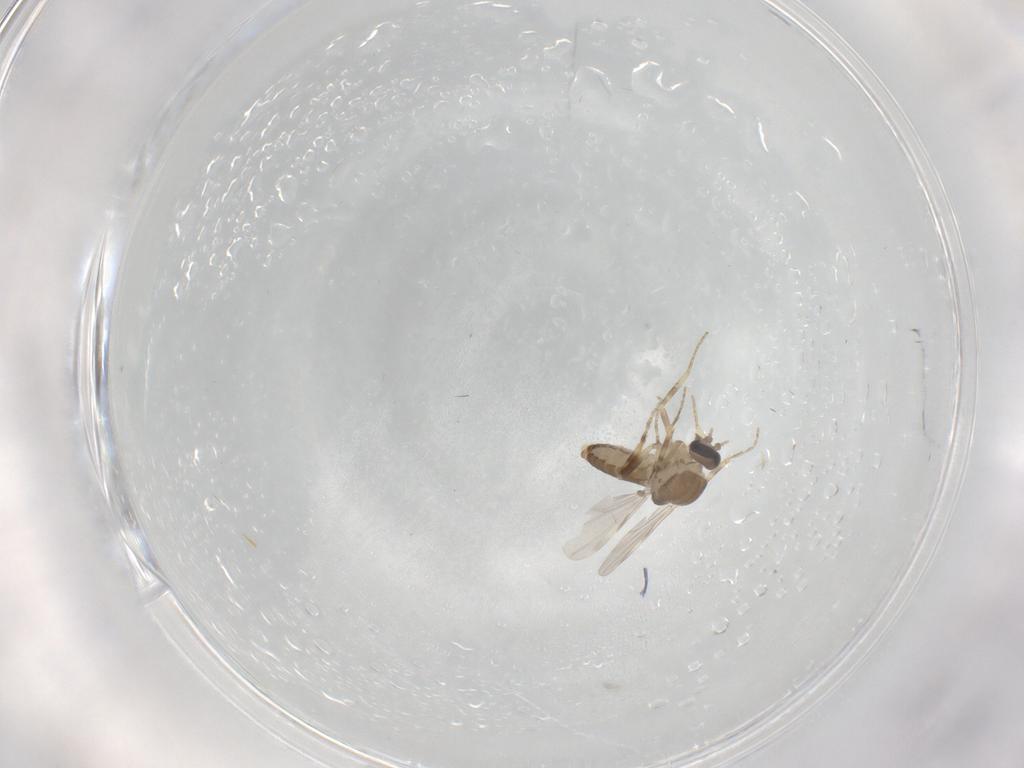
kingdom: Animalia
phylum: Arthropoda
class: Insecta
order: Diptera
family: Ceratopogonidae
